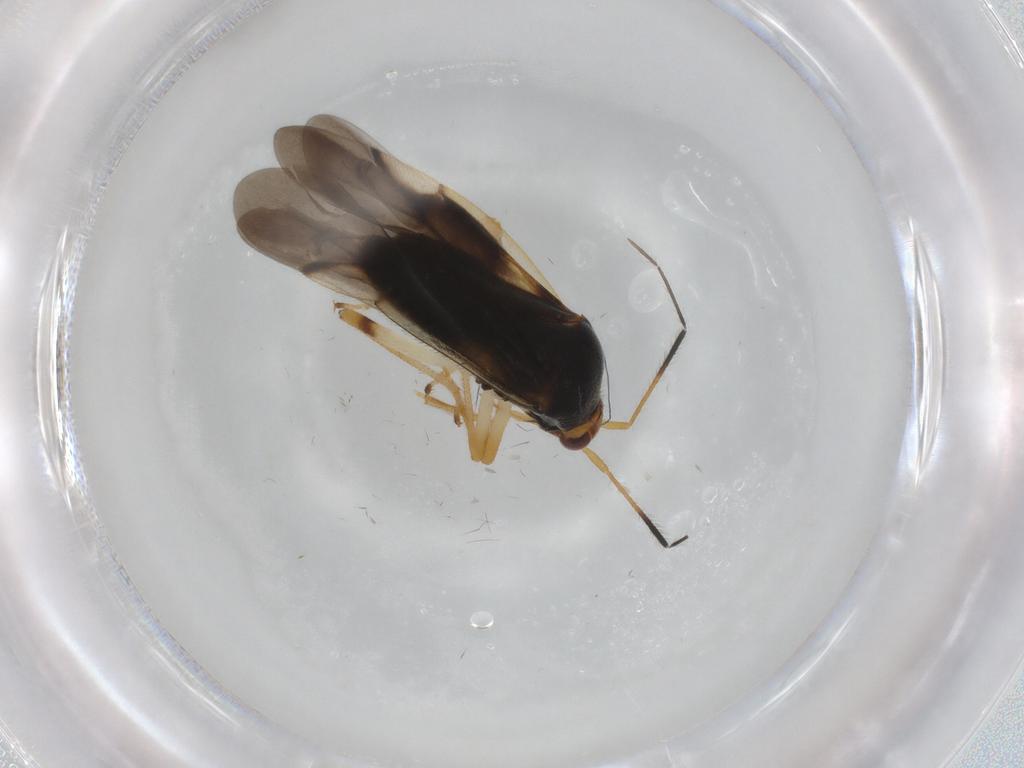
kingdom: Animalia
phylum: Arthropoda
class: Insecta
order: Hemiptera
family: Miridae
